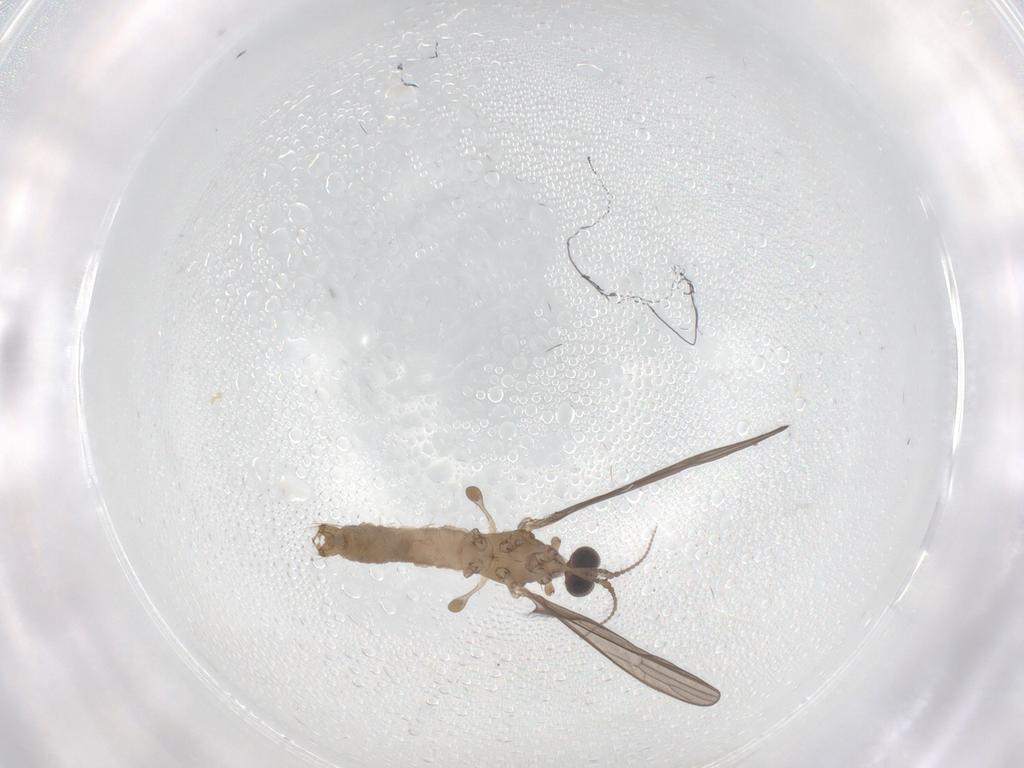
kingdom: Animalia
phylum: Arthropoda
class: Insecta
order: Diptera
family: Limoniidae
